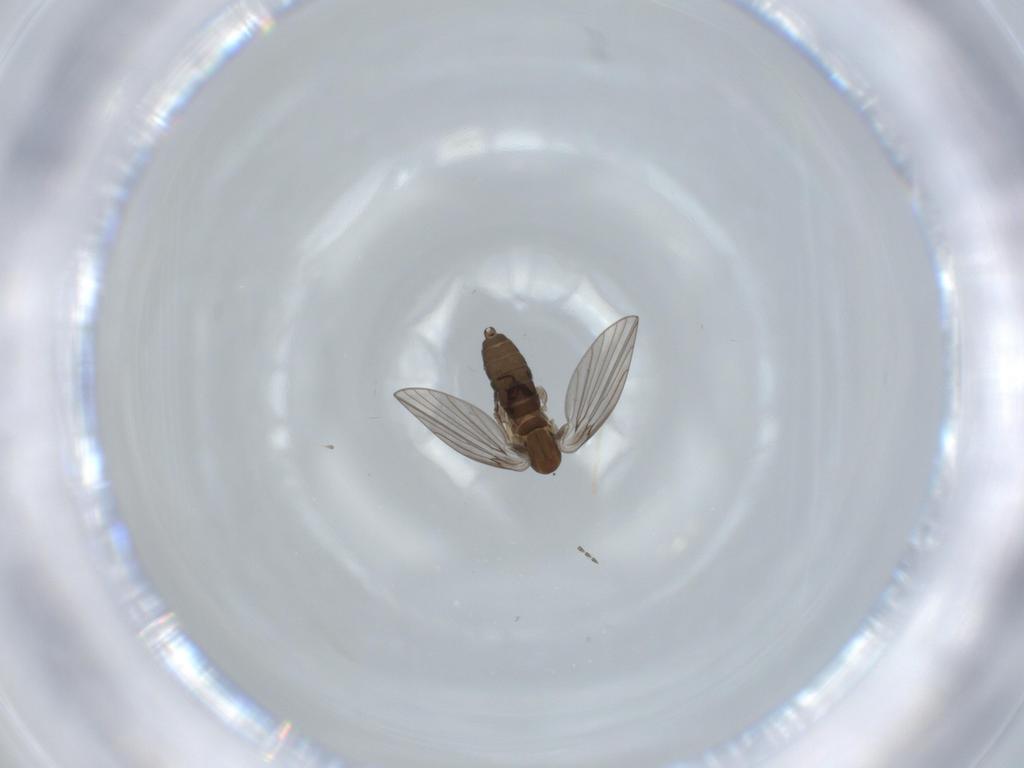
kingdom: Animalia
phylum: Arthropoda
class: Insecta
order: Diptera
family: Psychodidae
